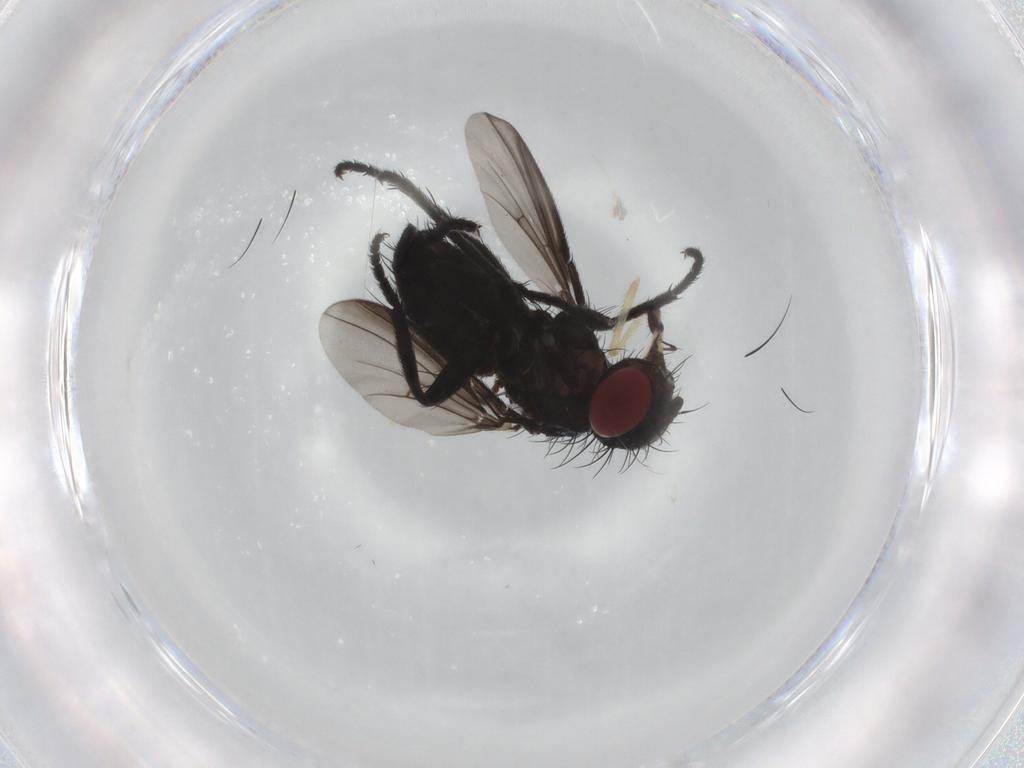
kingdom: Animalia
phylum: Arthropoda
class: Insecta
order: Diptera
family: Tachinidae
